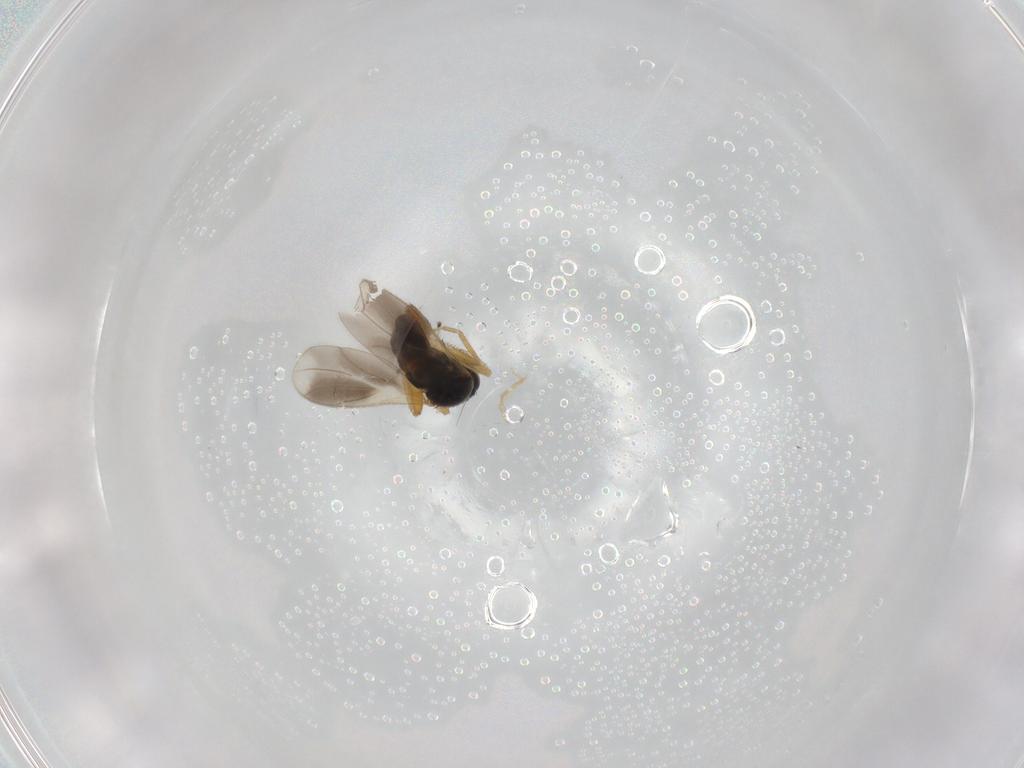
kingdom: Animalia
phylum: Arthropoda
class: Insecta
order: Diptera
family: Hybotidae
